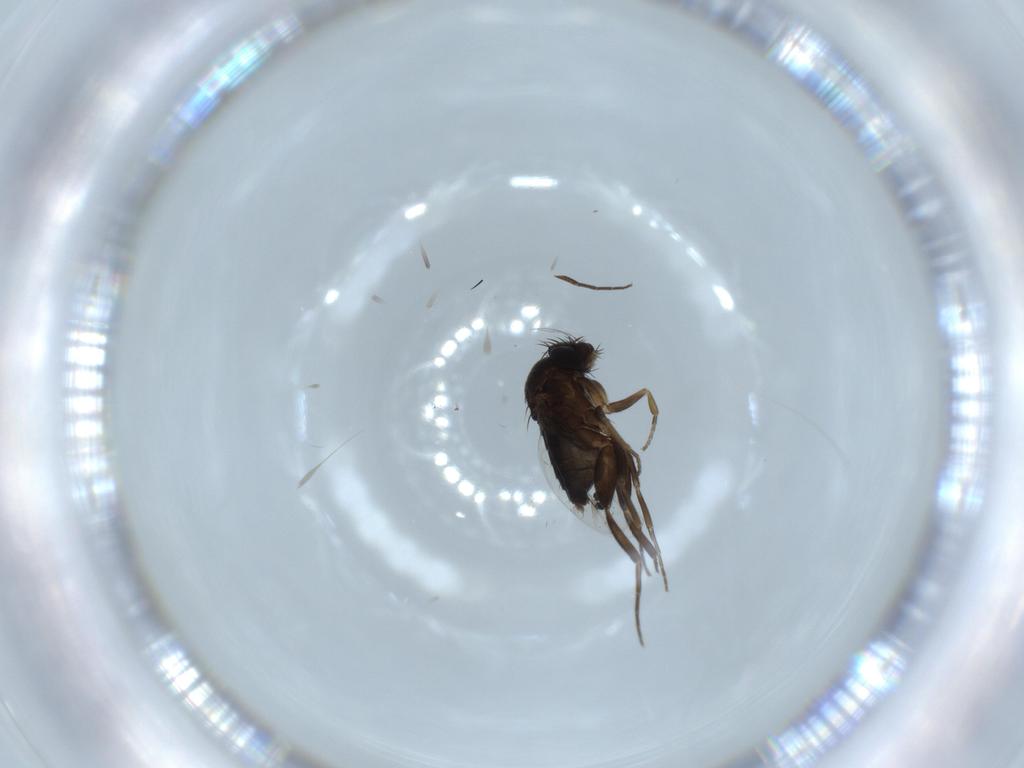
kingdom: Animalia
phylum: Arthropoda
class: Insecta
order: Diptera
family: Phoridae
